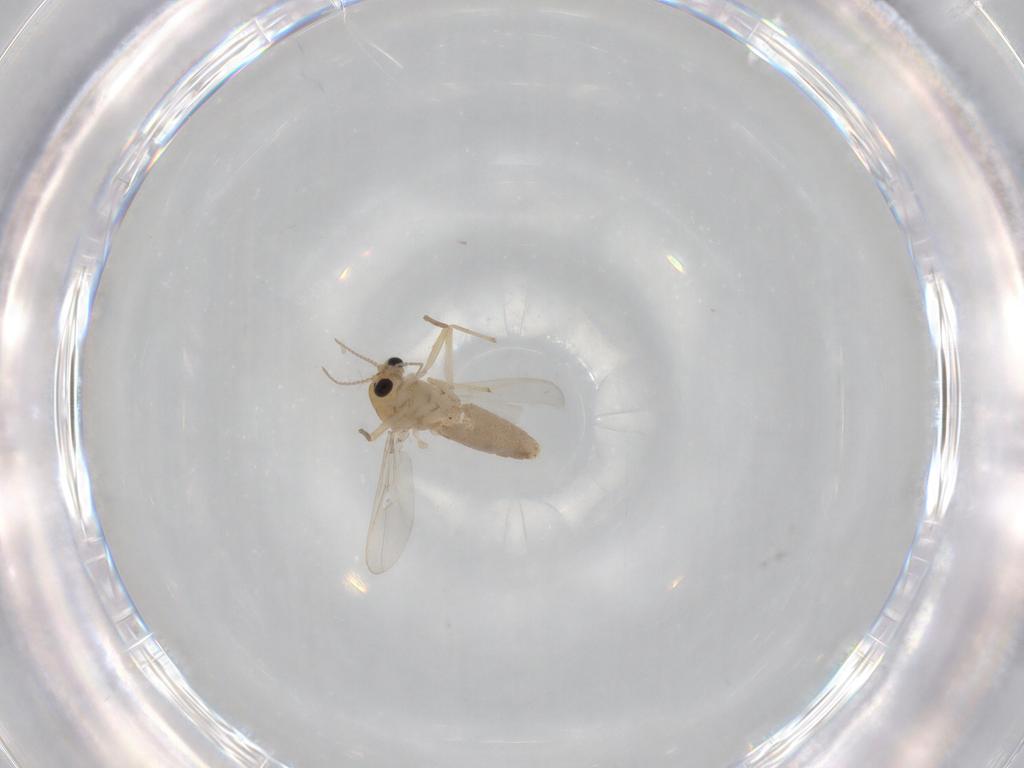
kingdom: Animalia
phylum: Arthropoda
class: Insecta
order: Diptera
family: Chironomidae
